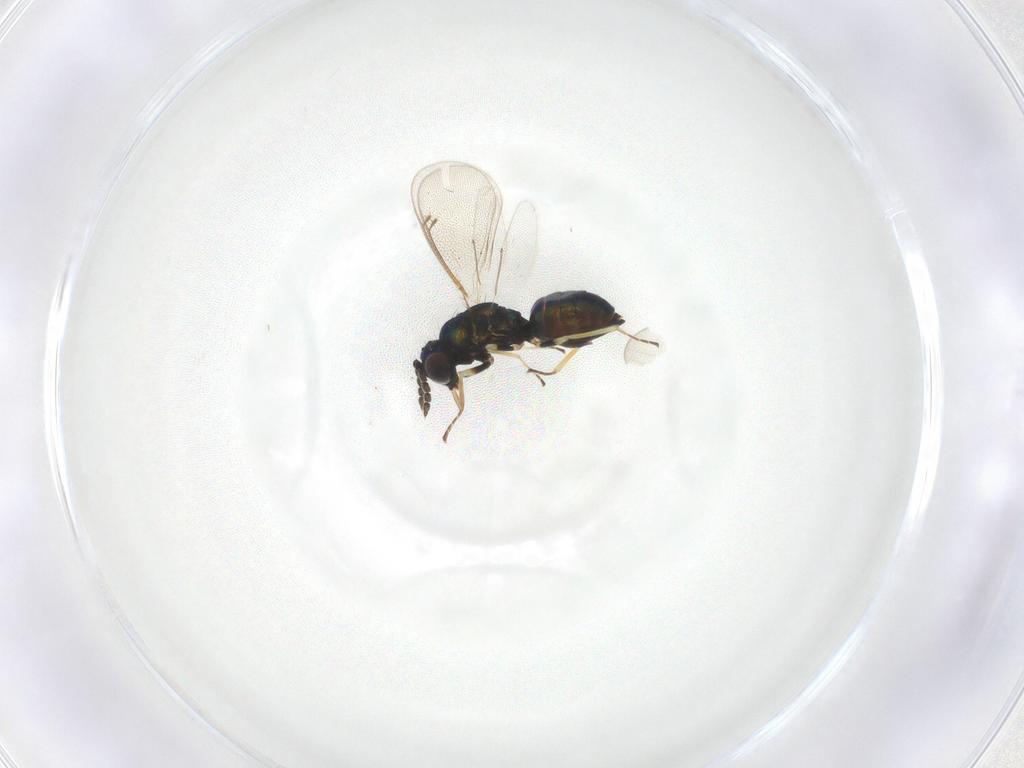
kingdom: Animalia
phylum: Arthropoda
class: Insecta
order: Hymenoptera
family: Eulophidae
